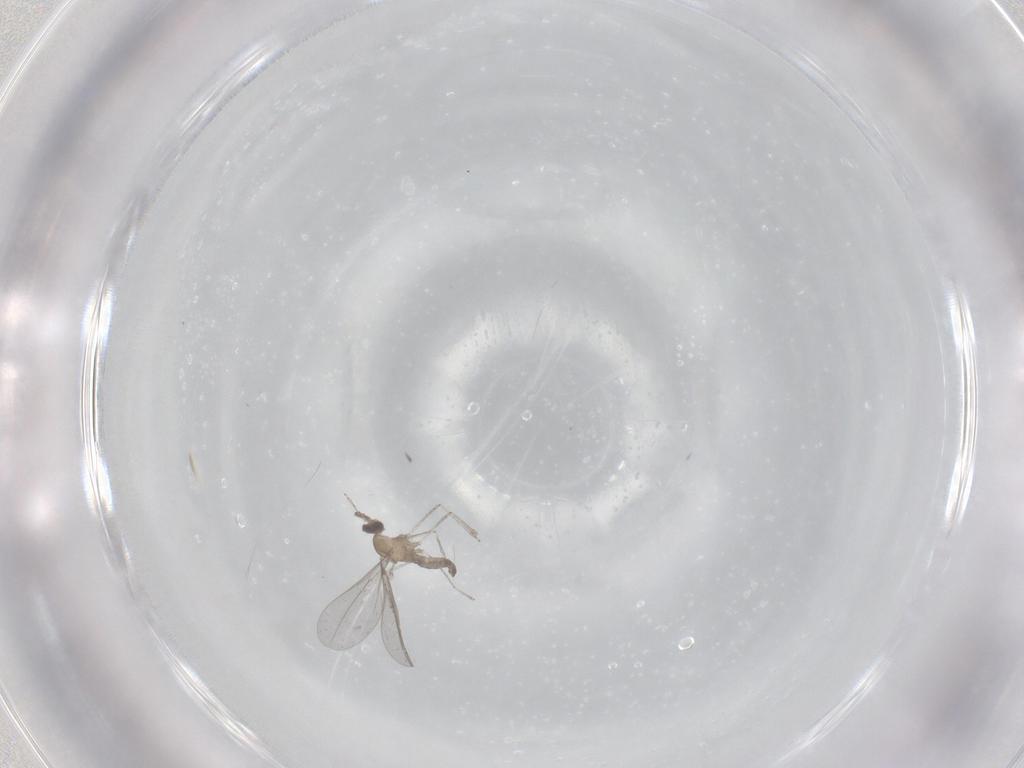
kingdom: Animalia
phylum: Arthropoda
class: Insecta
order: Diptera
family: Cecidomyiidae
